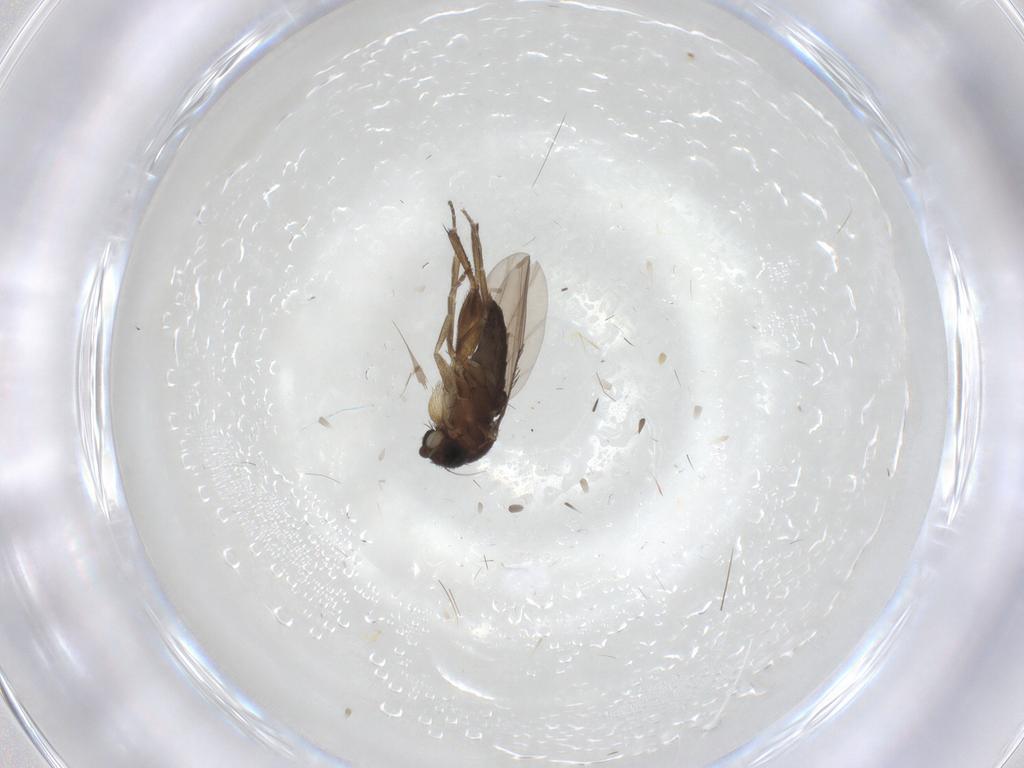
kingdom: Animalia
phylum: Arthropoda
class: Insecta
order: Diptera
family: Phoridae
